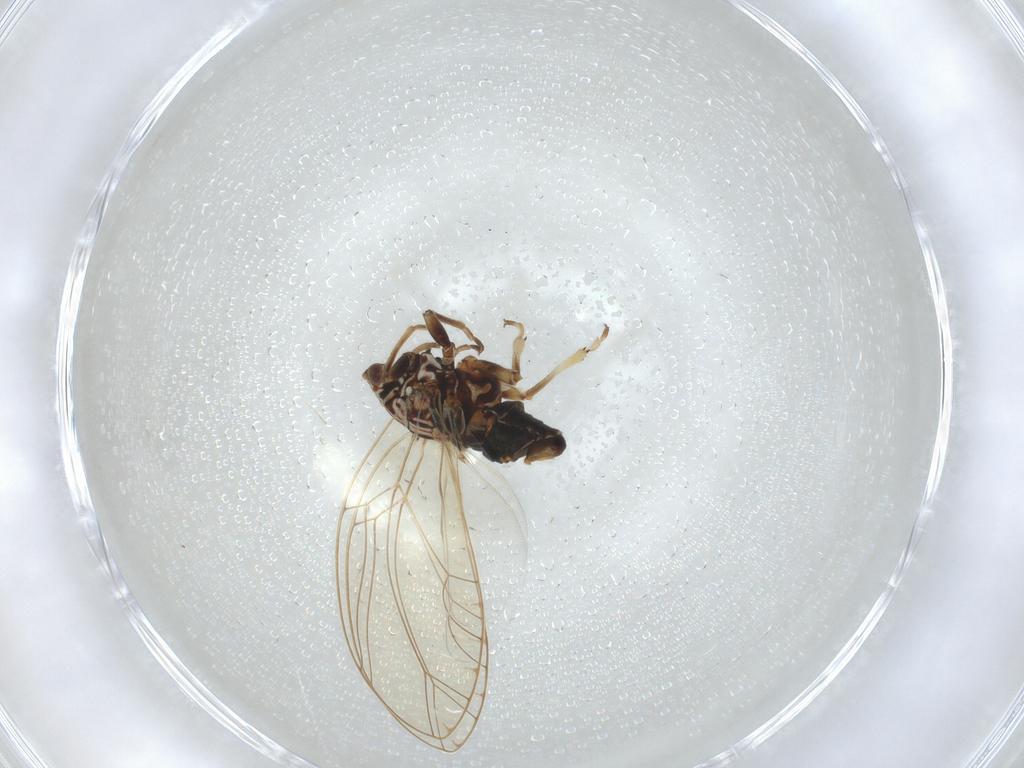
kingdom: Animalia
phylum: Arthropoda
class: Insecta
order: Hemiptera
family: Triozidae
